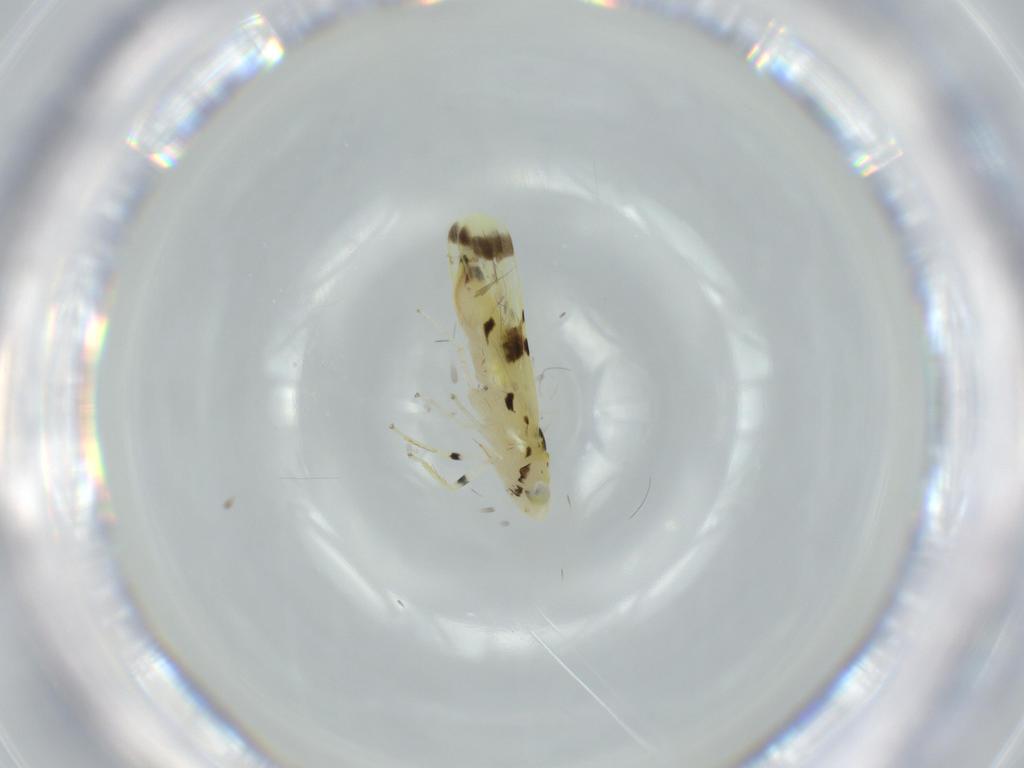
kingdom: Animalia
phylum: Arthropoda
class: Insecta
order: Hemiptera
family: Cicadellidae
